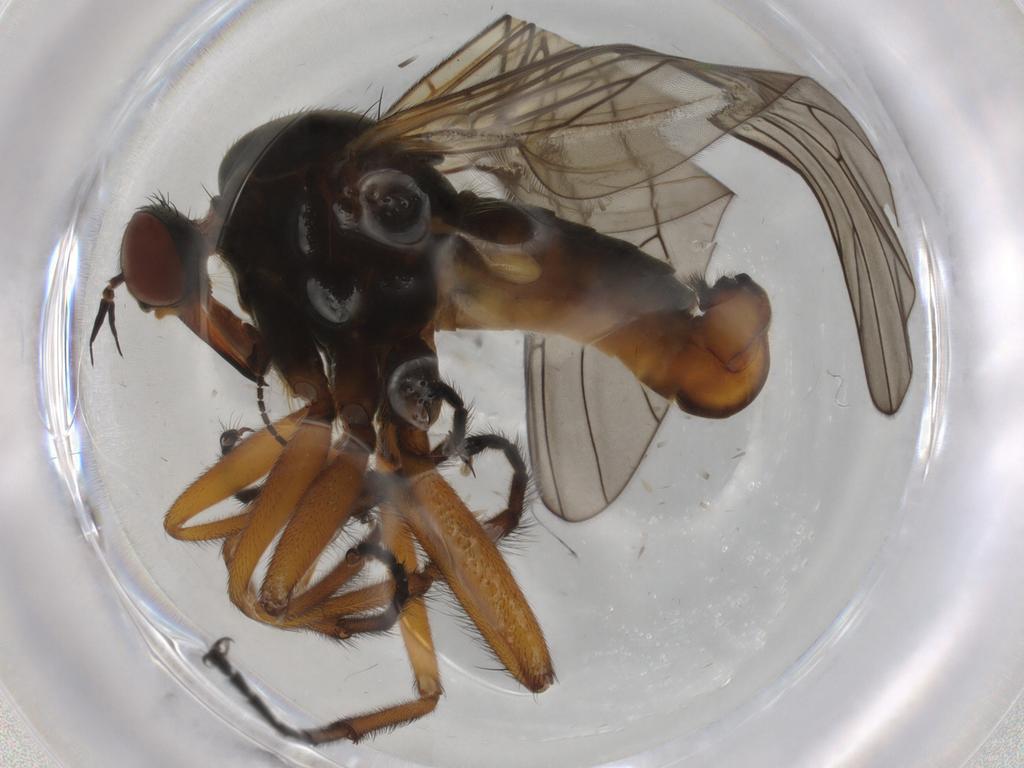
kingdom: Animalia
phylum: Arthropoda
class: Insecta
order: Diptera
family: Empididae
